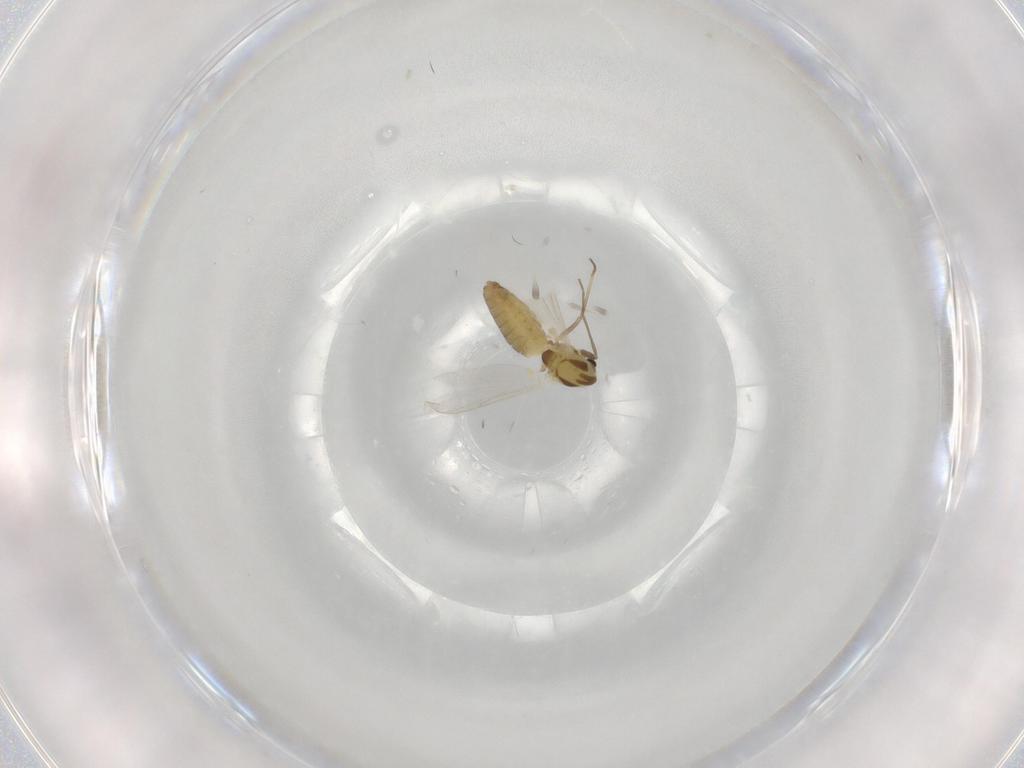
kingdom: Animalia
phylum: Arthropoda
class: Insecta
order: Diptera
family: Chironomidae
